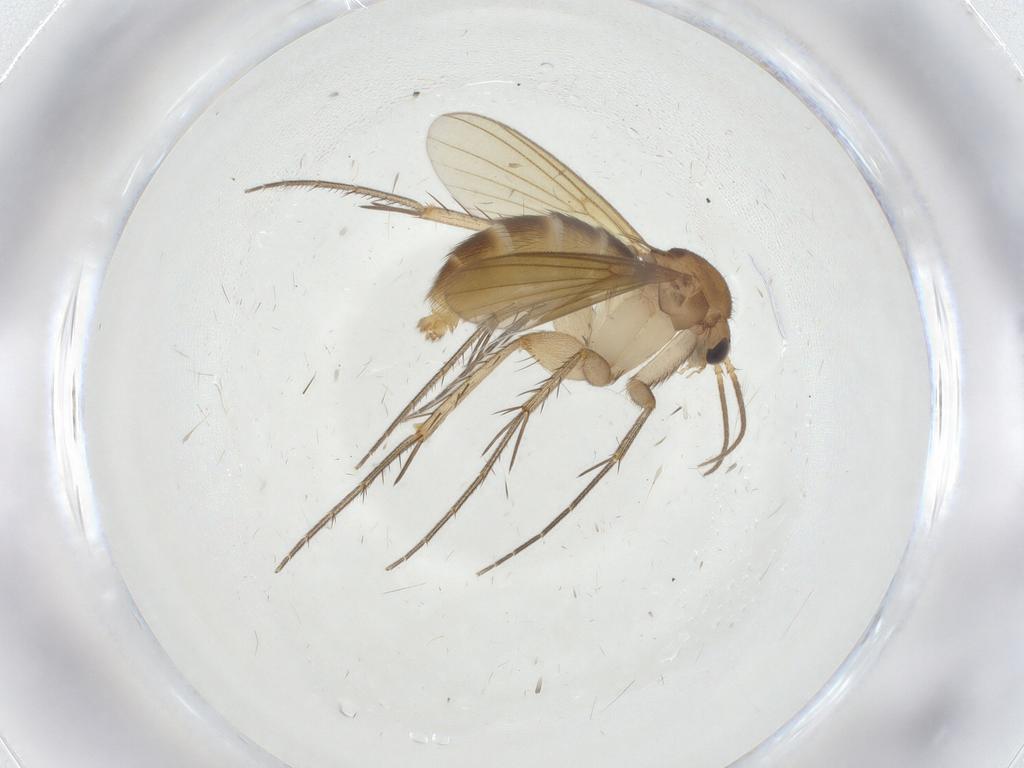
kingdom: Animalia
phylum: Arthropoda
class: Insecta
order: Diptera
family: Mycetophilidae
